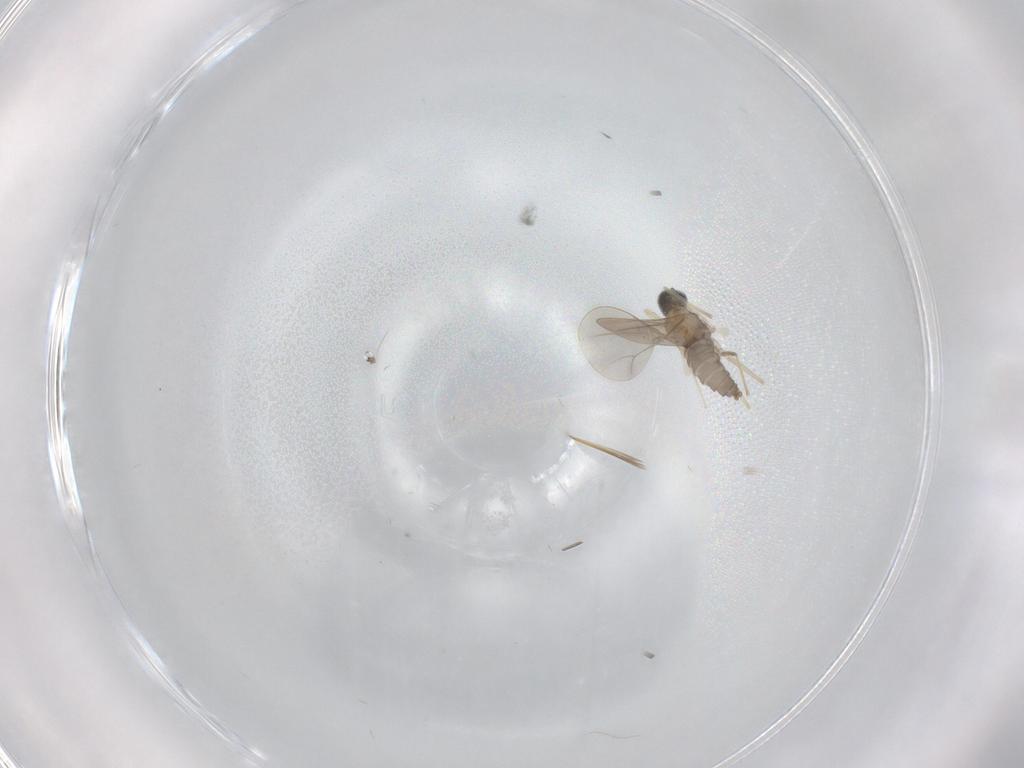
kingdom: Animalia
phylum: Arthropoda
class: Insecta
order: Diptera
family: Cecidomyiidae
